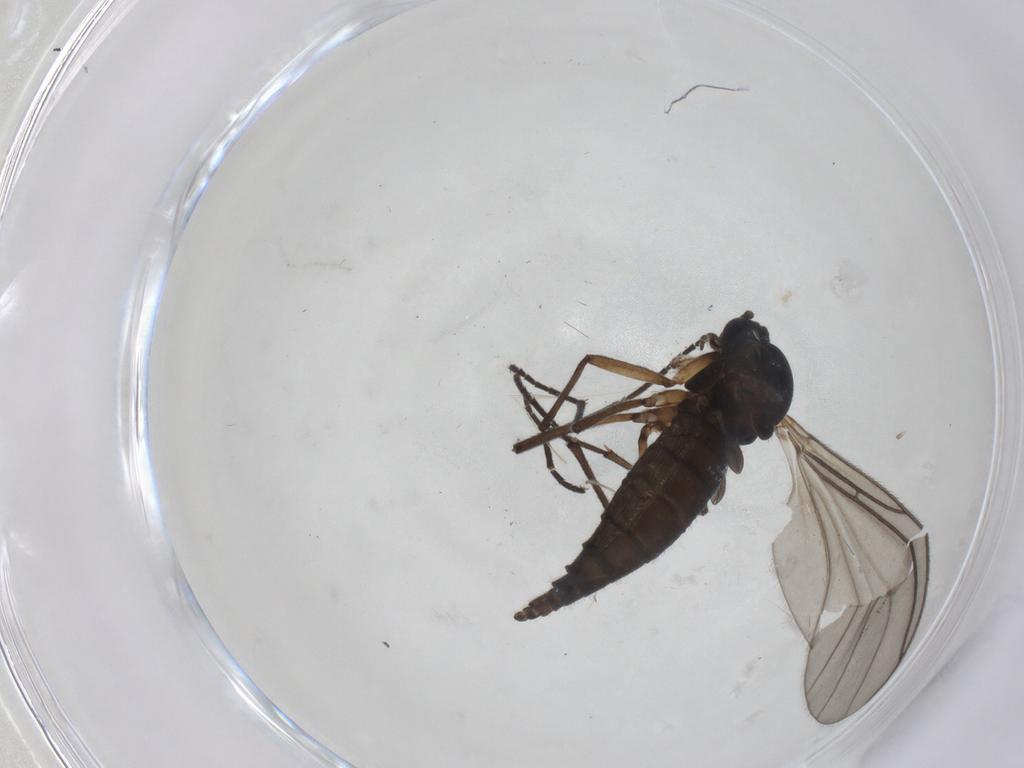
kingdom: Animalia
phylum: Arthropoda
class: Insecta
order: Diptera
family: Sciaridae
